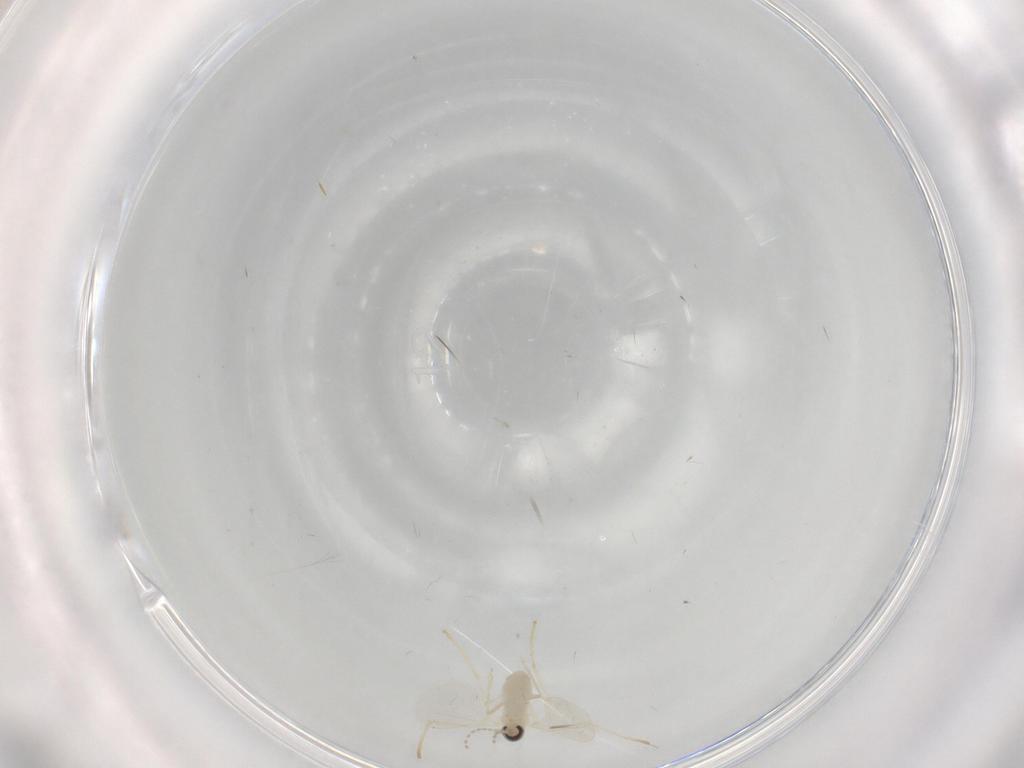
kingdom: Animalia
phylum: Arthropoda
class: Insecta
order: Diptera
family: Cecidomyiidae
